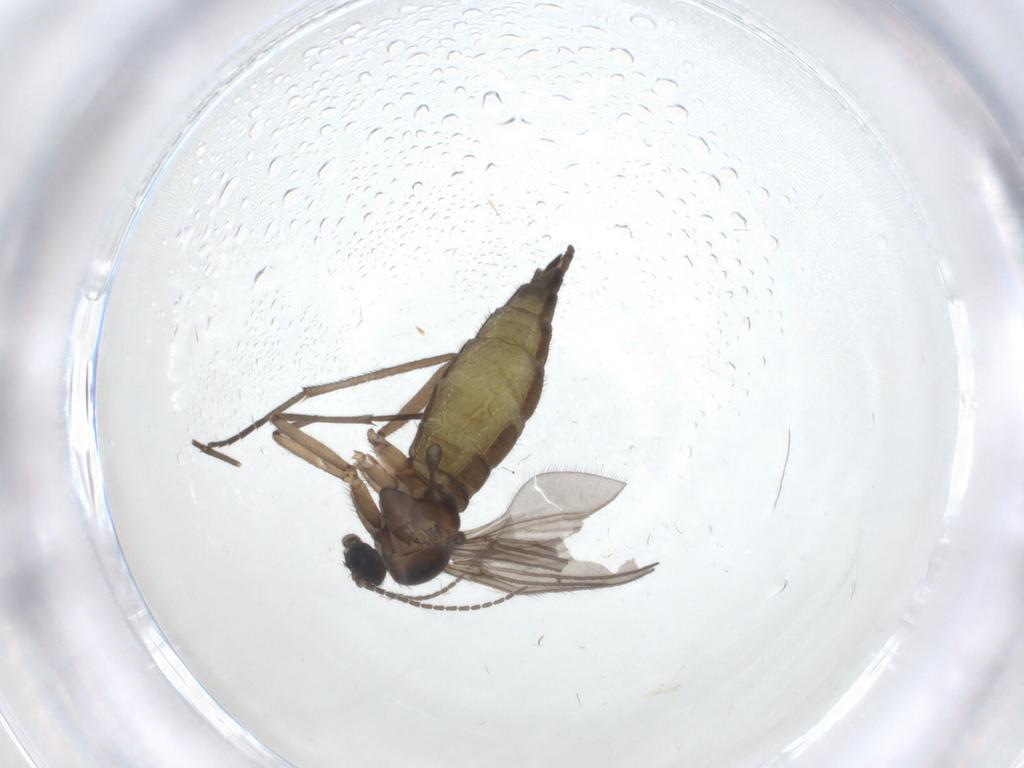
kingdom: Animalia
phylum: Arthropoda
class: Insecta
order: Diptera
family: Sciaridae
